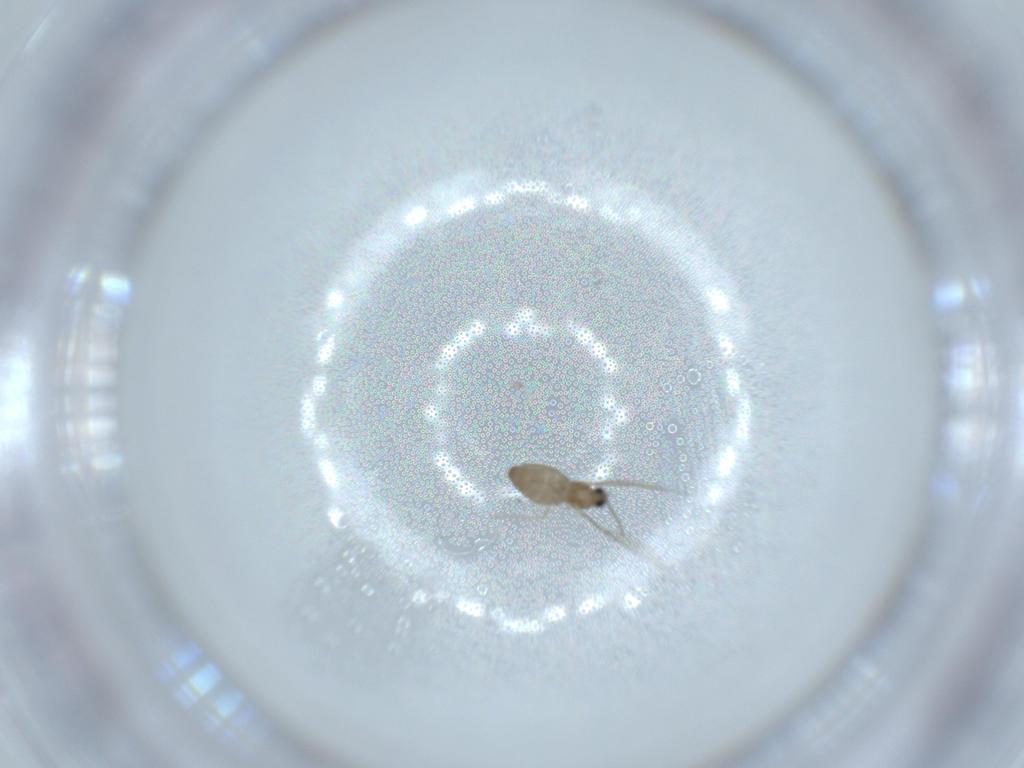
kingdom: Animalia
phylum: Arthropoda
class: Insecta
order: Diptera
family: Cecidomyiidae
